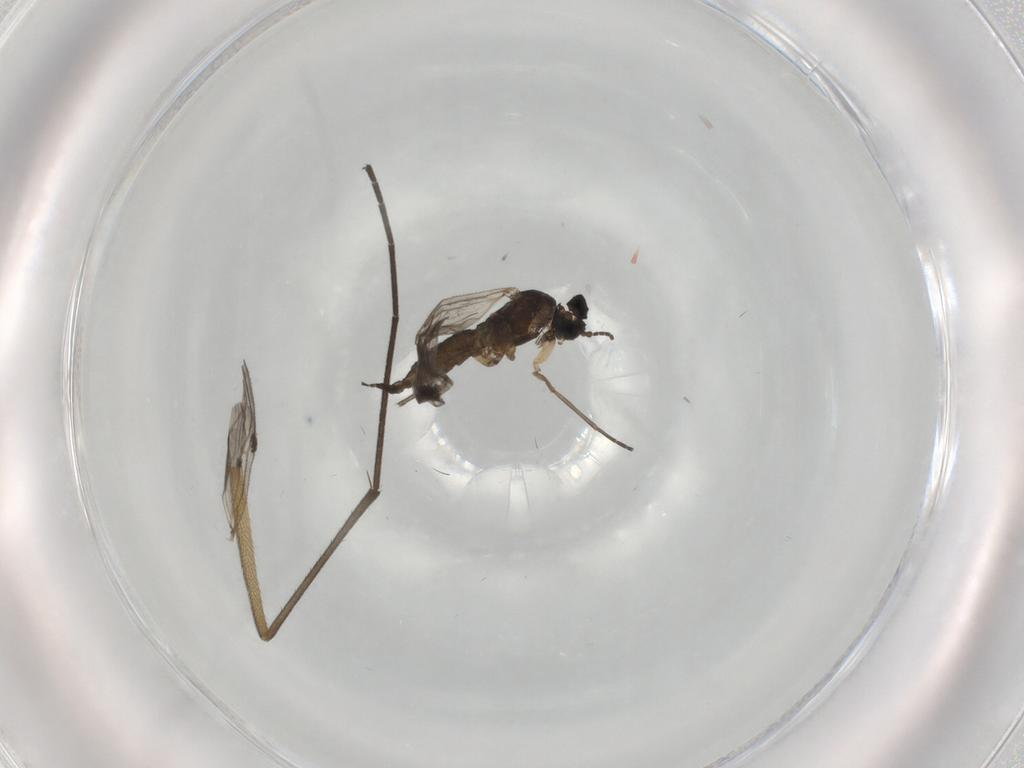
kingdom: Animalia
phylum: Arthropoda
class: Insecta
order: Diptera
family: Sciaridae
